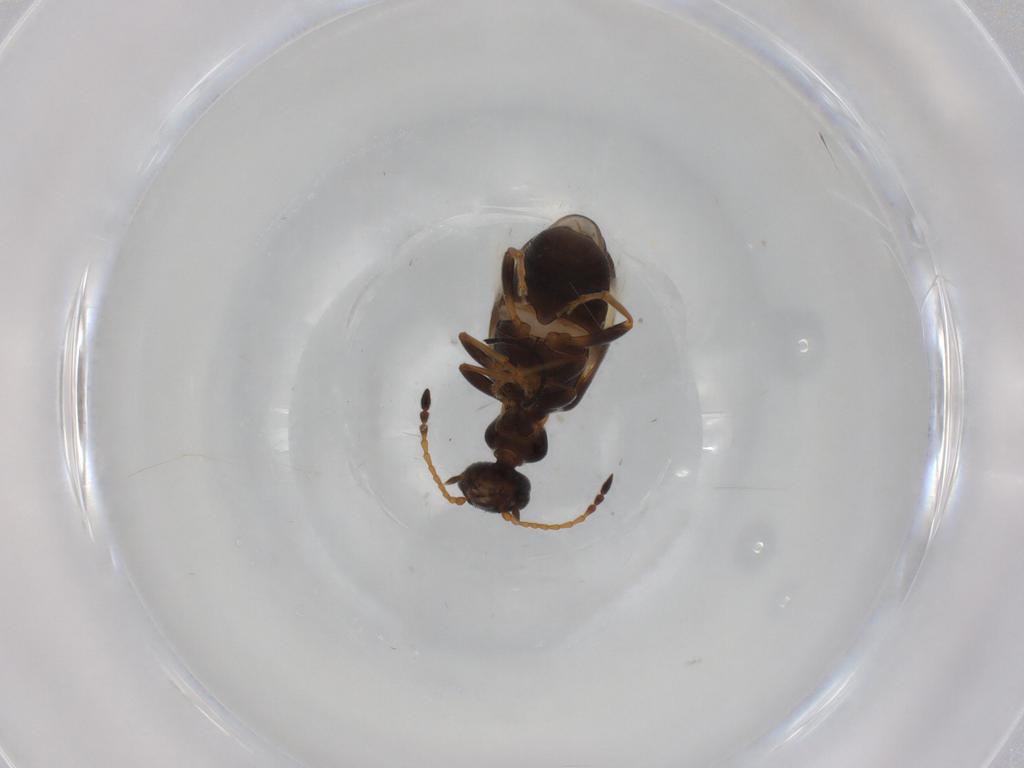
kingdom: Animalia
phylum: Arthropoda
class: Insecta
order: Coleoptera
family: Anthicidae
